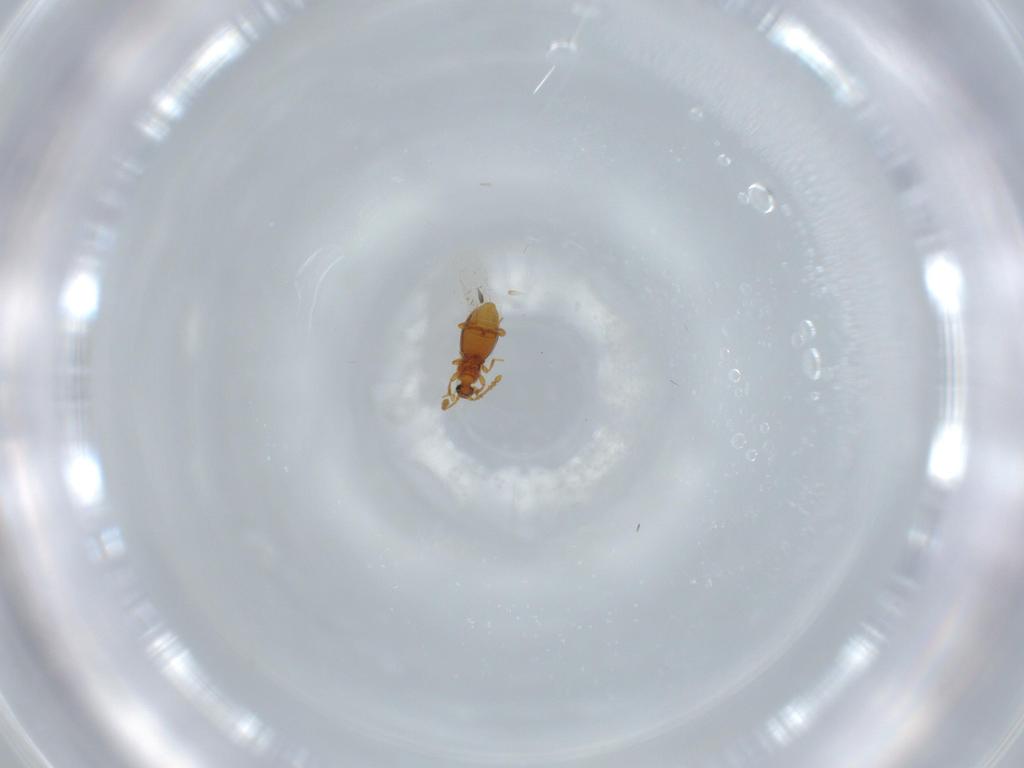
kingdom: Animalia
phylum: Arthropoda
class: Insecta
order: Coleoptera
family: Staphylinidae
